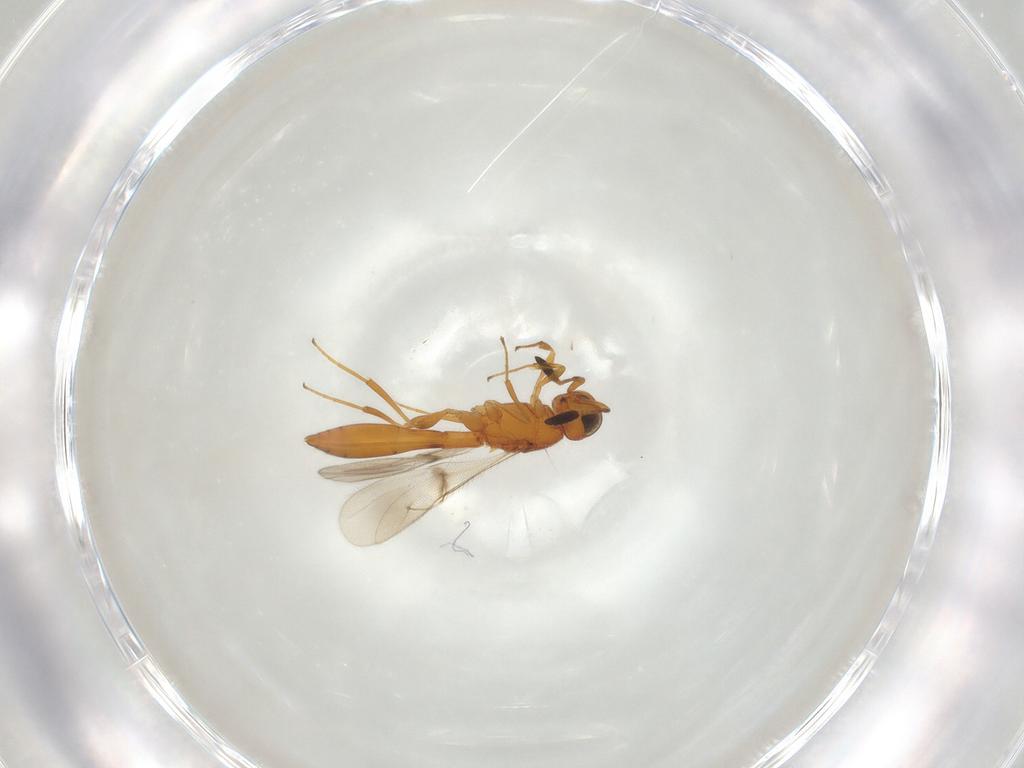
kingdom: Animalia
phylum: Arthropoda
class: Insecta
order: Hymenoptera
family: Scelionidae
